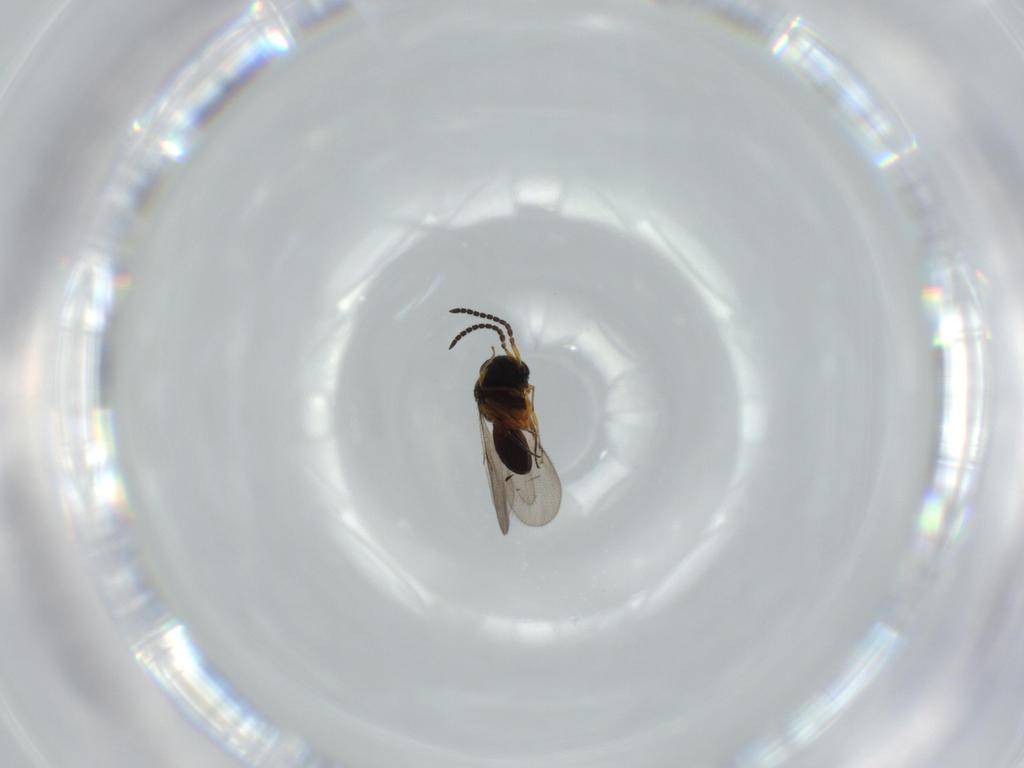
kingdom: Animalia
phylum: Arthropoda
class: Insecta
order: Hymenoptera
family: Scelionidae
